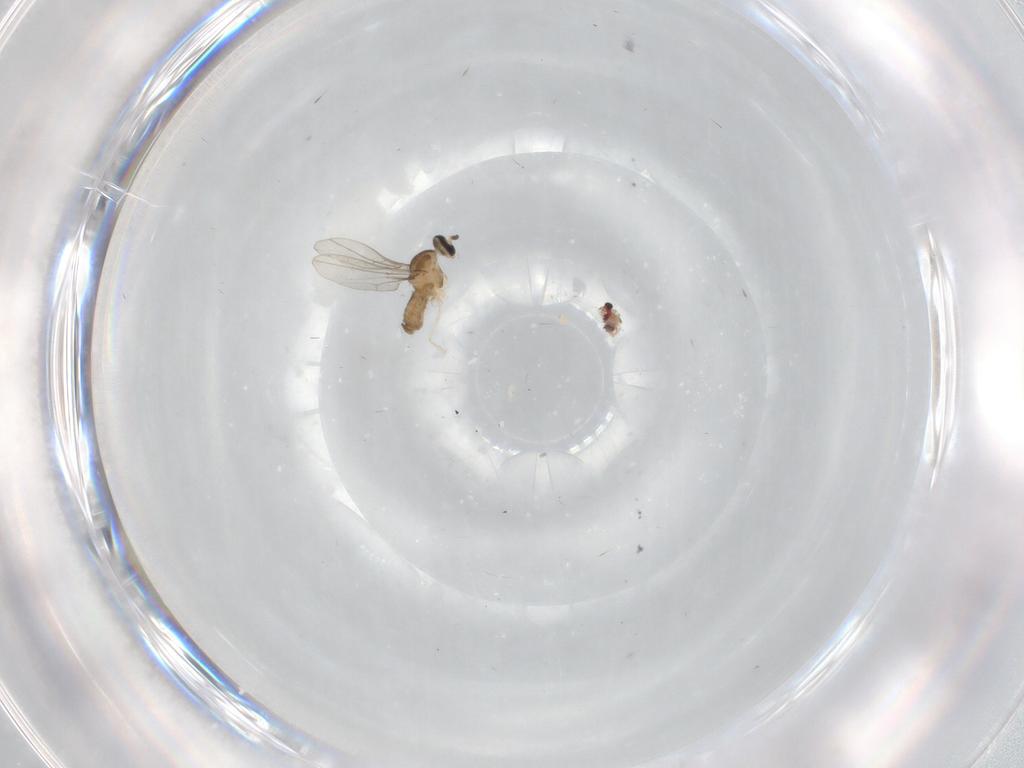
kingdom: Animalia
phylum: Arthropoda
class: Insecta
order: Diptera
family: Cecidomyiidae
